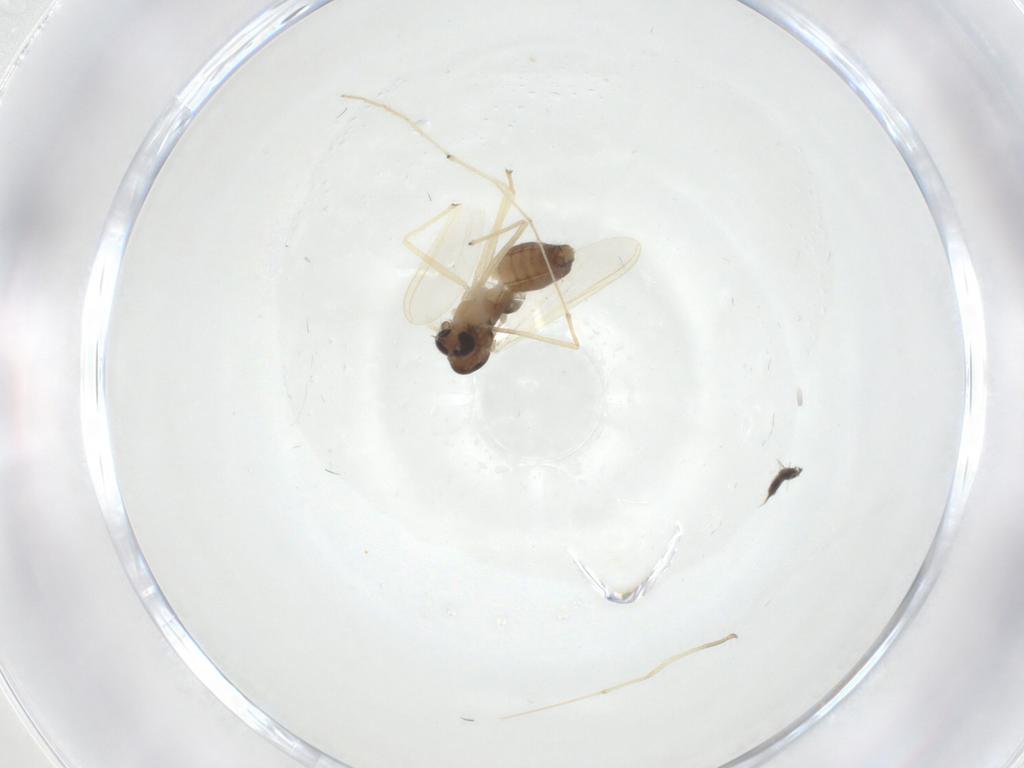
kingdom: Animalia
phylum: Arthropoda
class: Insecta
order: Diptera
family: Chironomidae
